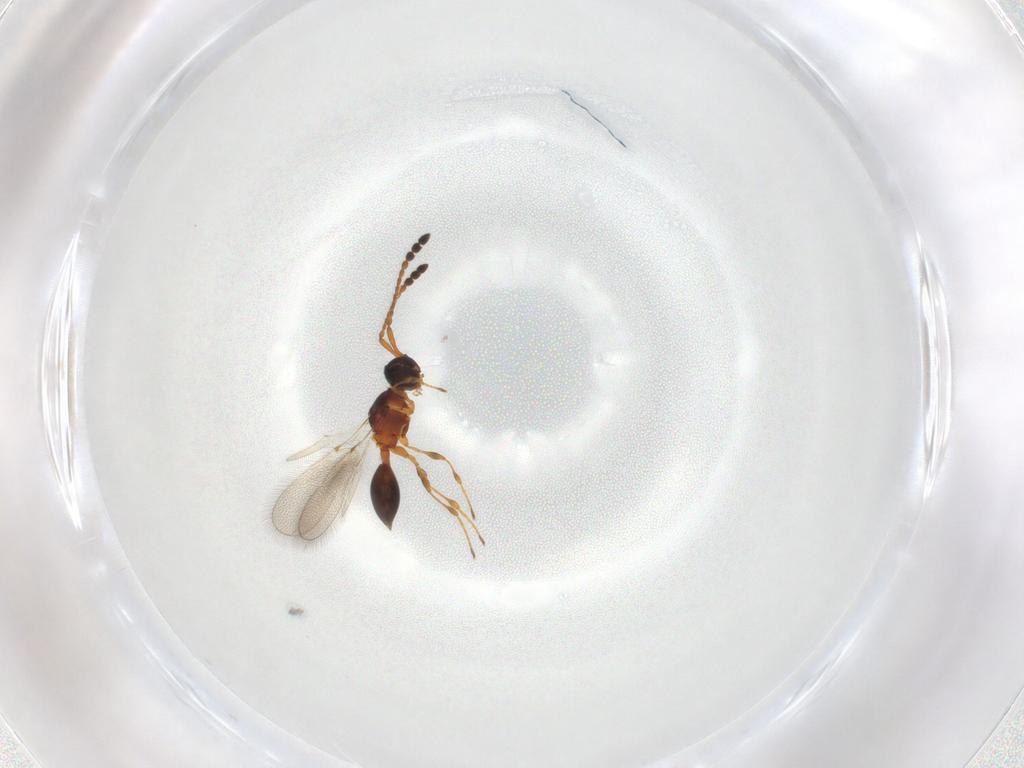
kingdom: Animalia
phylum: Arthropoda
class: Insecta
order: Hymenoptera
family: Diapriidae
